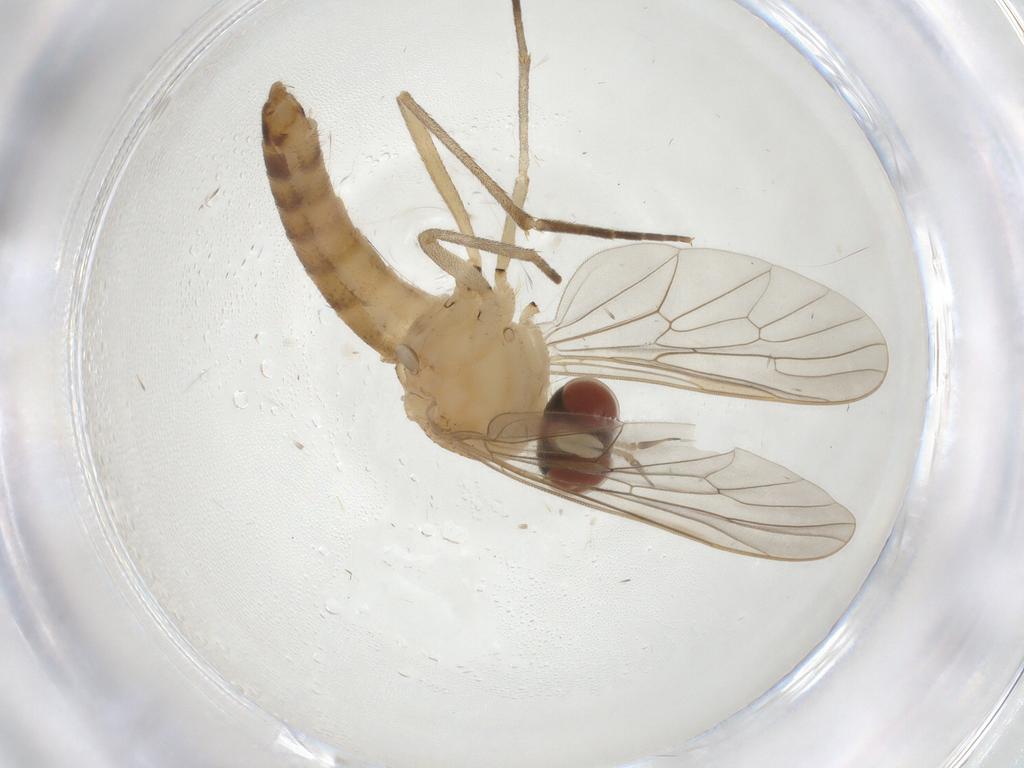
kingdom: Animalia
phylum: Arthropoda
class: Insecta
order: Diptera
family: Apsilocephalidae
